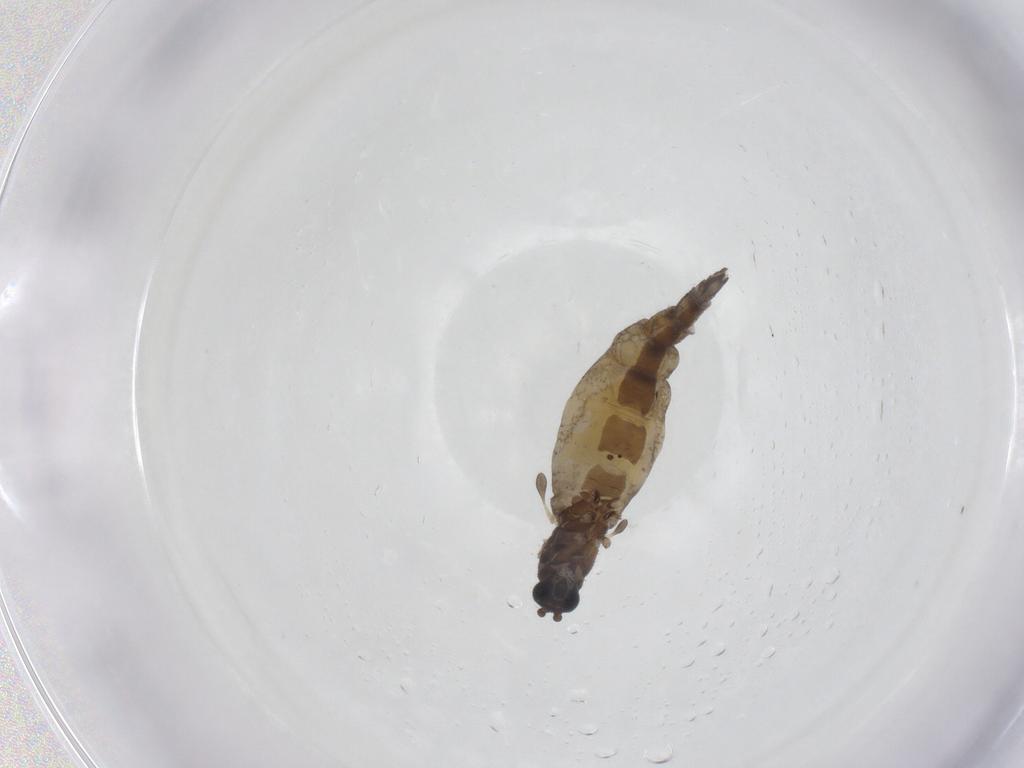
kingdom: Animalia
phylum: Arthropoda
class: Insecta
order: Diptera
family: Sciaridae
